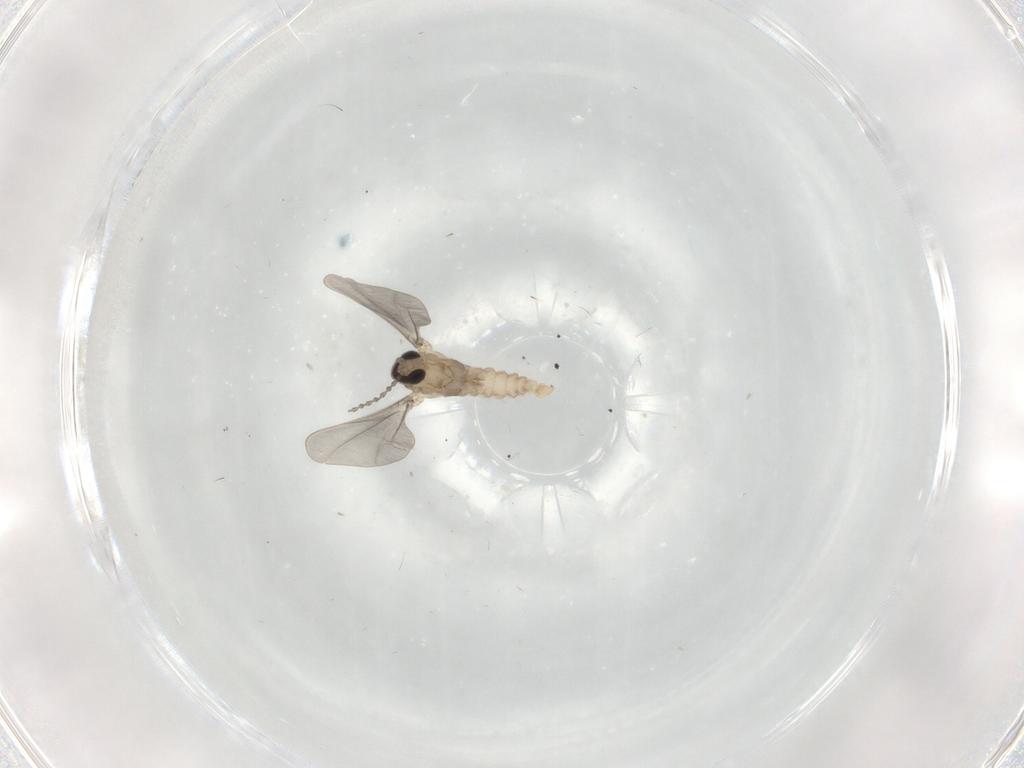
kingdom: Animalia
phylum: Arthropoda
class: Insecta
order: Diptera
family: Cecidomyiidae
